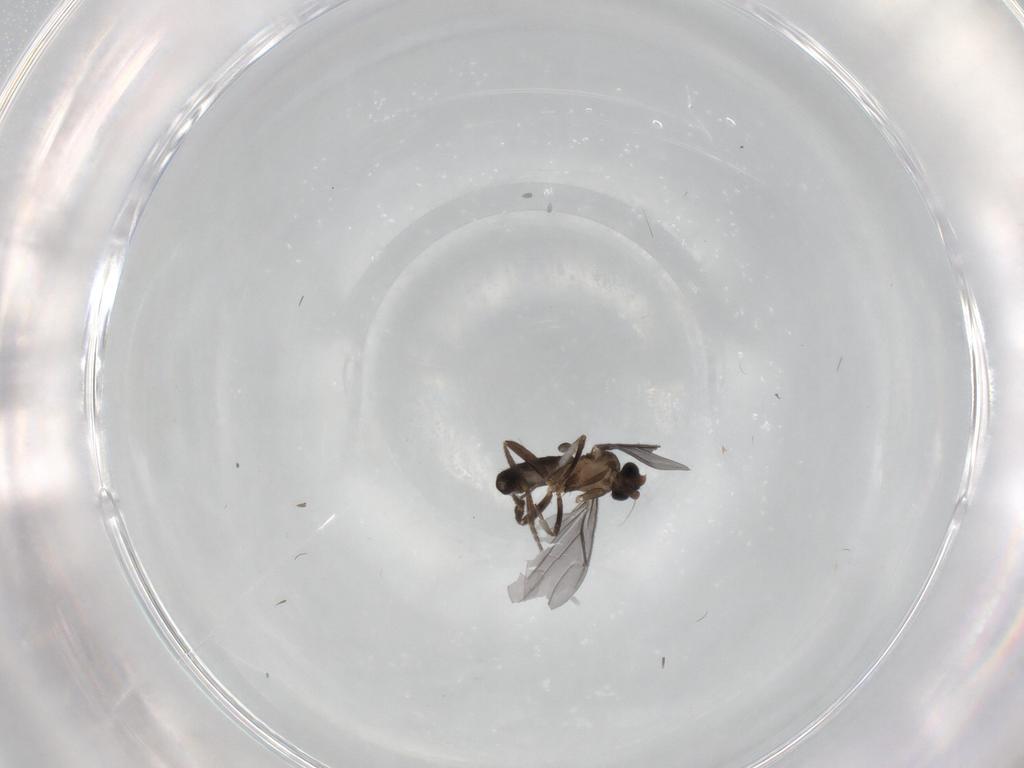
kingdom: Animalia
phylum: Arthropoda
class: Insecta
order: Diptera
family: Phoridae
